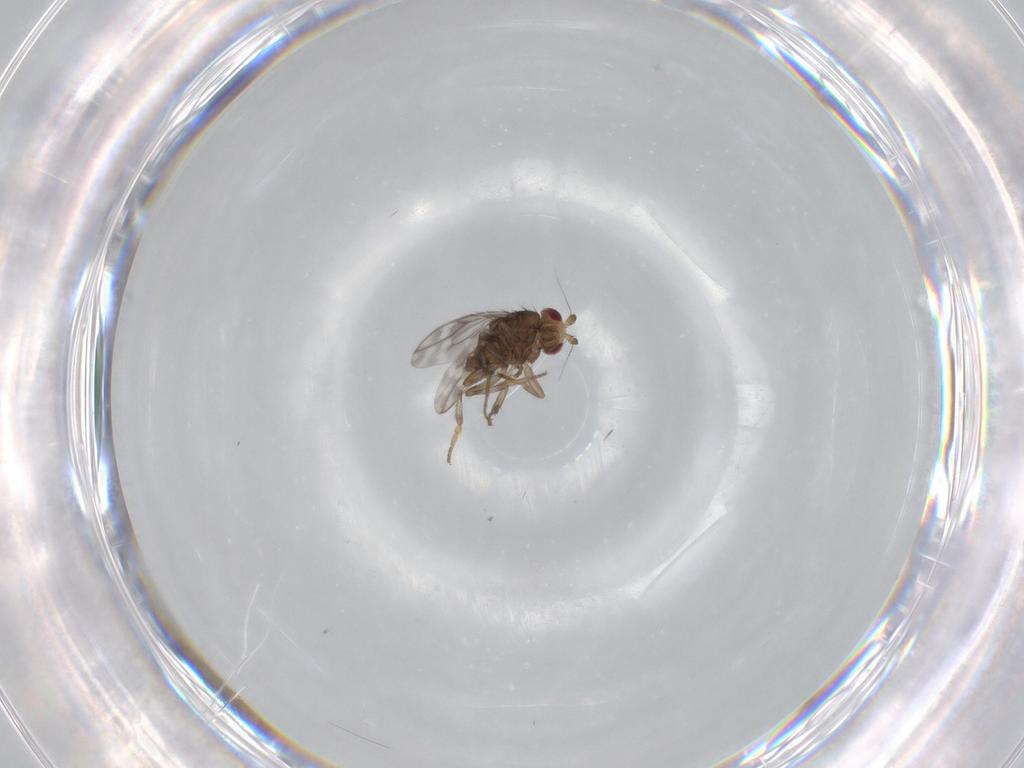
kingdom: Animalia
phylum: Arthropoda
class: Insecta
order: Diptera
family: Sphaeroceridae
